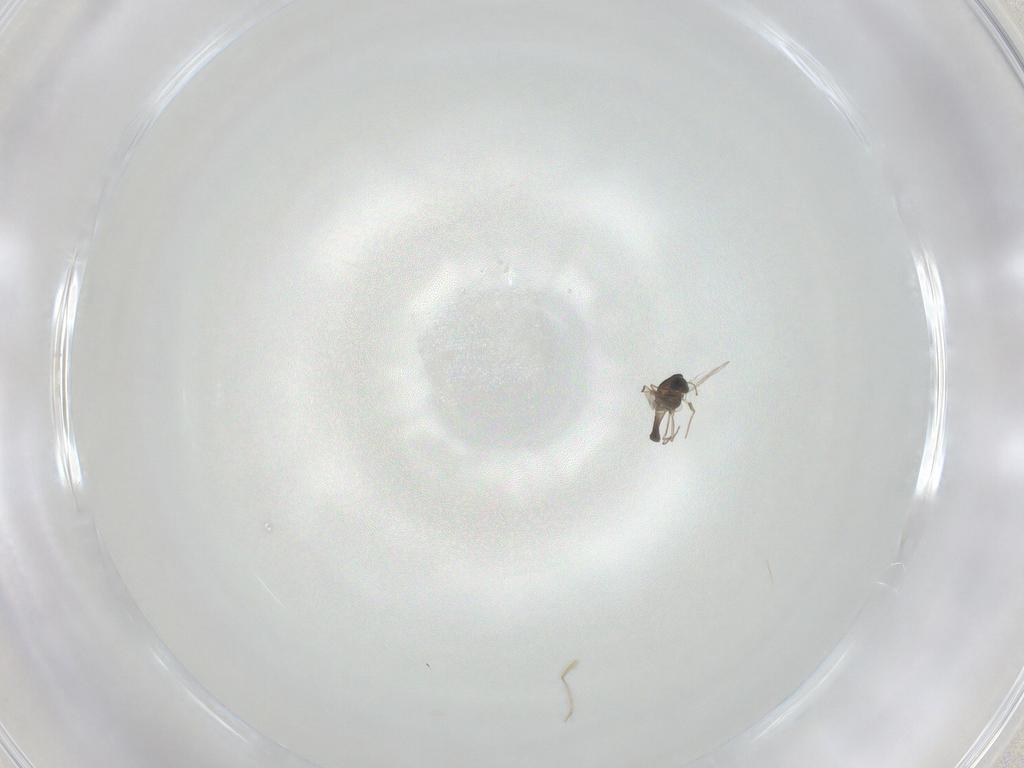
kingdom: Animalia
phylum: Arthropoda
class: Insecta
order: Diptera
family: Chironomidae
